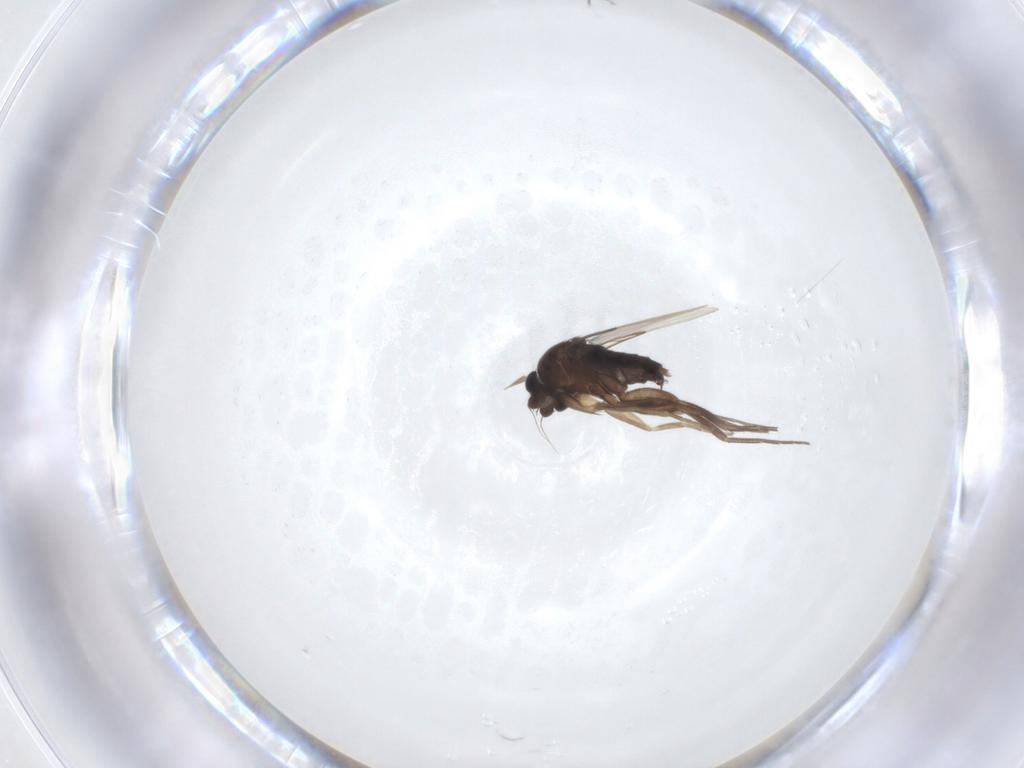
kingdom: Animalia
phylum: Arthropoda
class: Insecta
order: Diptera
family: Phoridae
